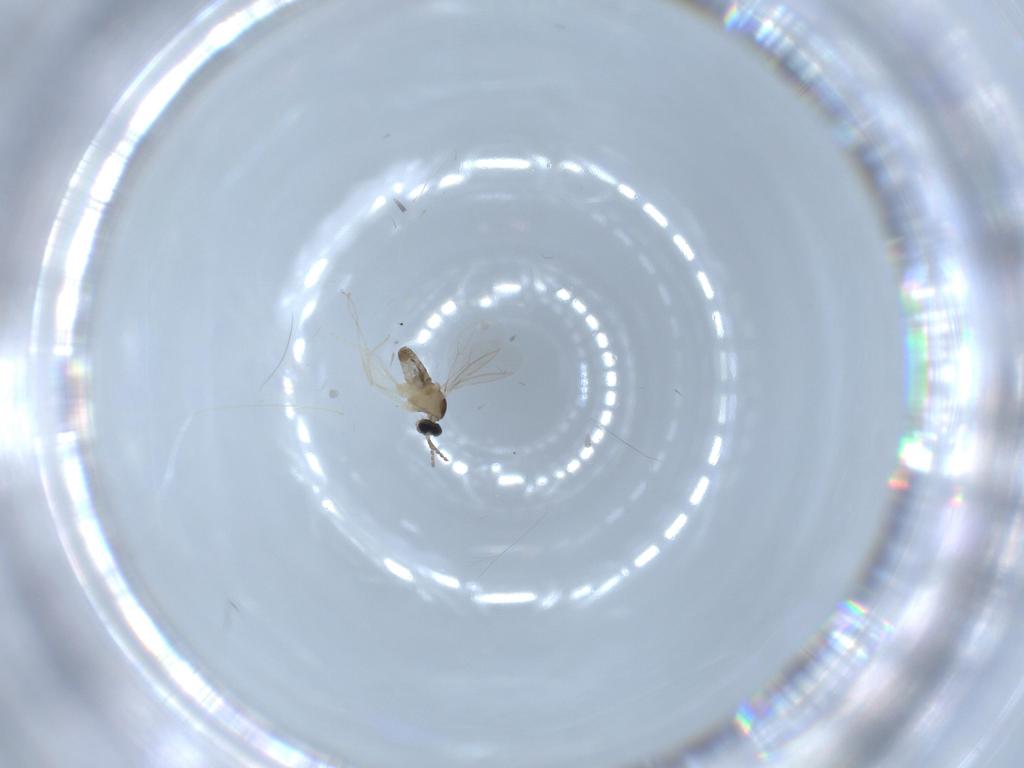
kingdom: Animalia
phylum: Arthropoda
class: Insecta
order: Diptera
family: Cecidomyiidae
